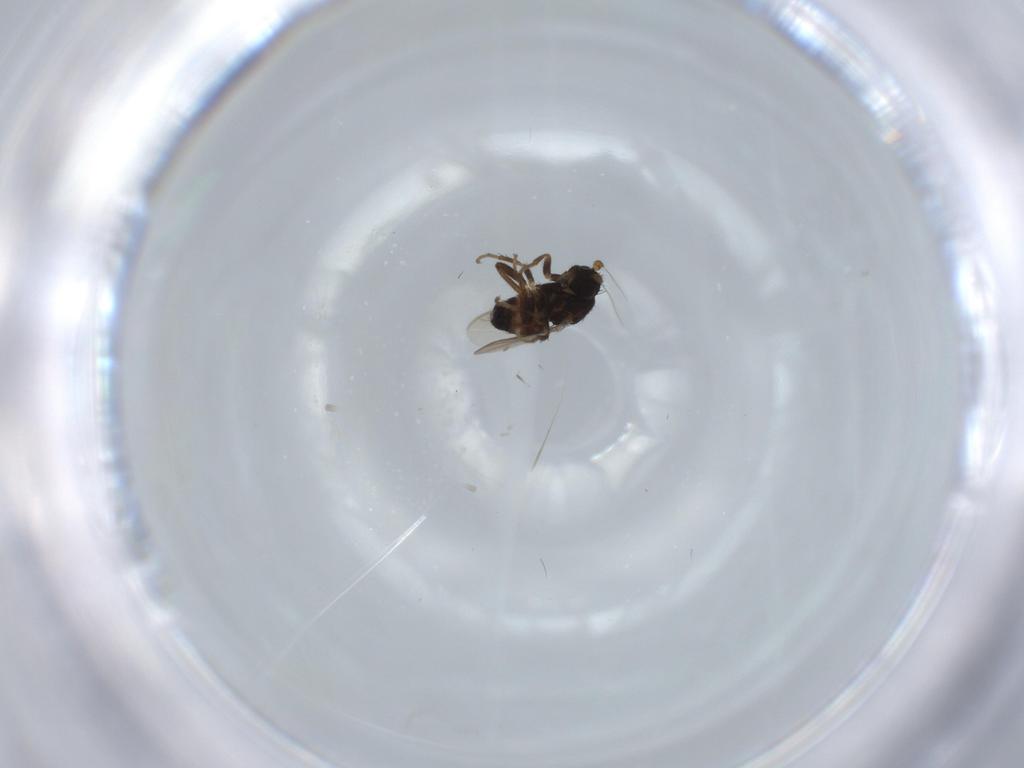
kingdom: Animalia
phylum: Arthropoda
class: Insecta
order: Diptera
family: Sphaeroceridae
